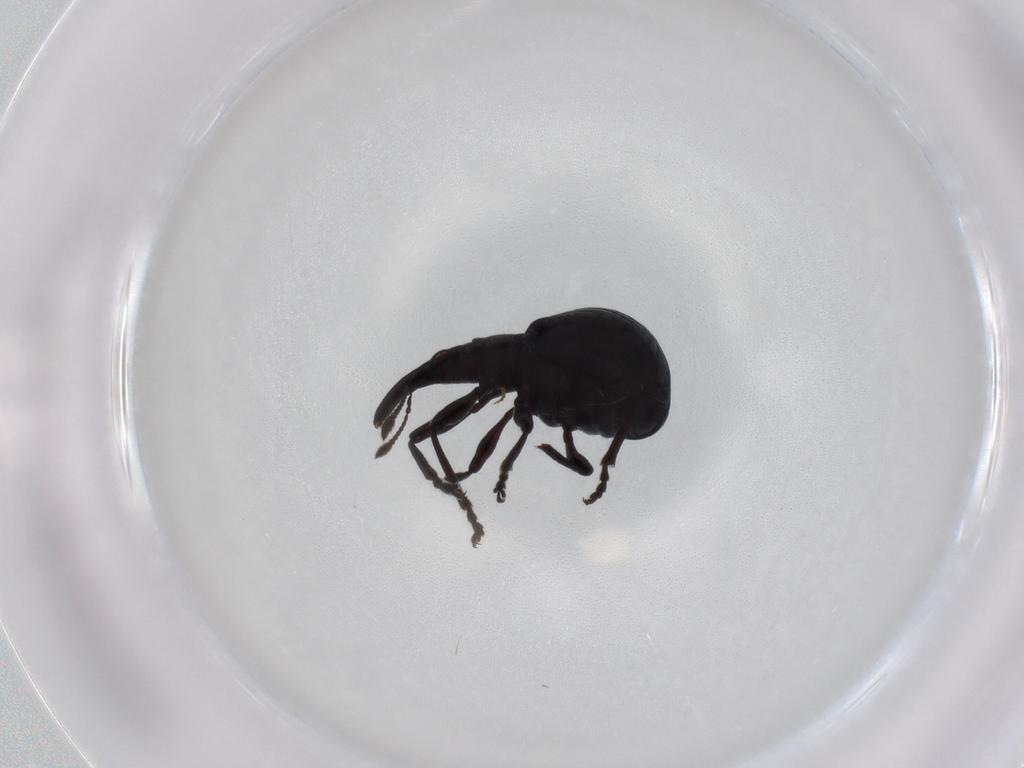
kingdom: Animalia
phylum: Arthropoda
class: Insecta
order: Coleoptera
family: Brentidae
